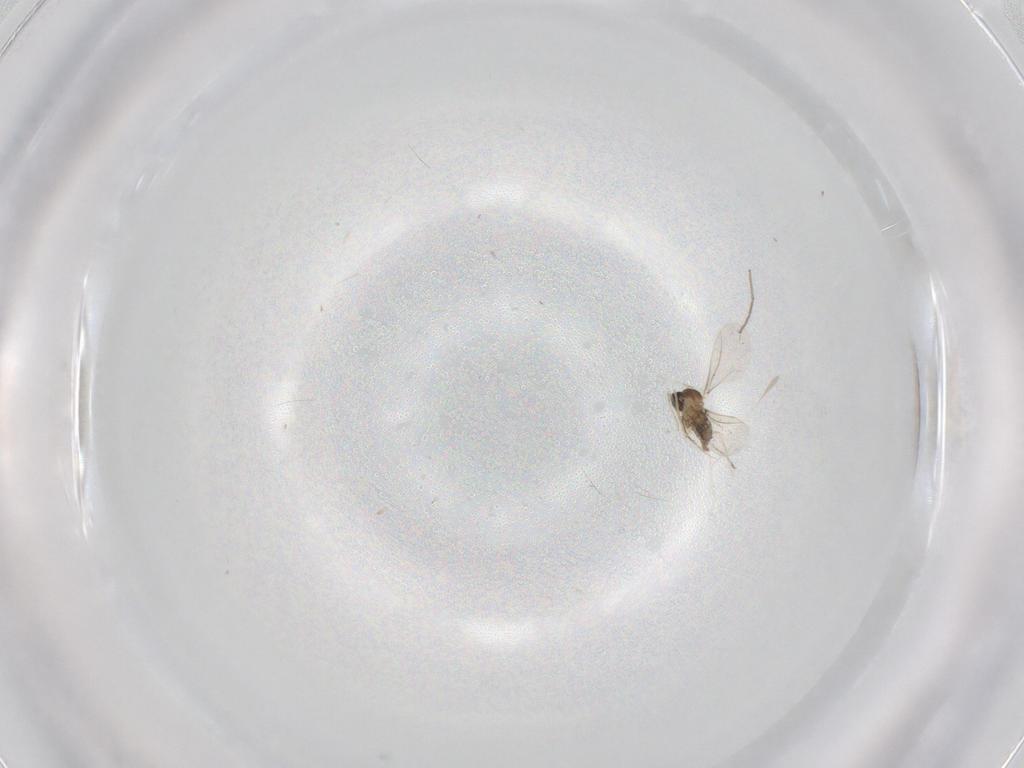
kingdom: Animalia
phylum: Arthropoda
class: Insecta
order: Diptera
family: Cecidomyiidae
